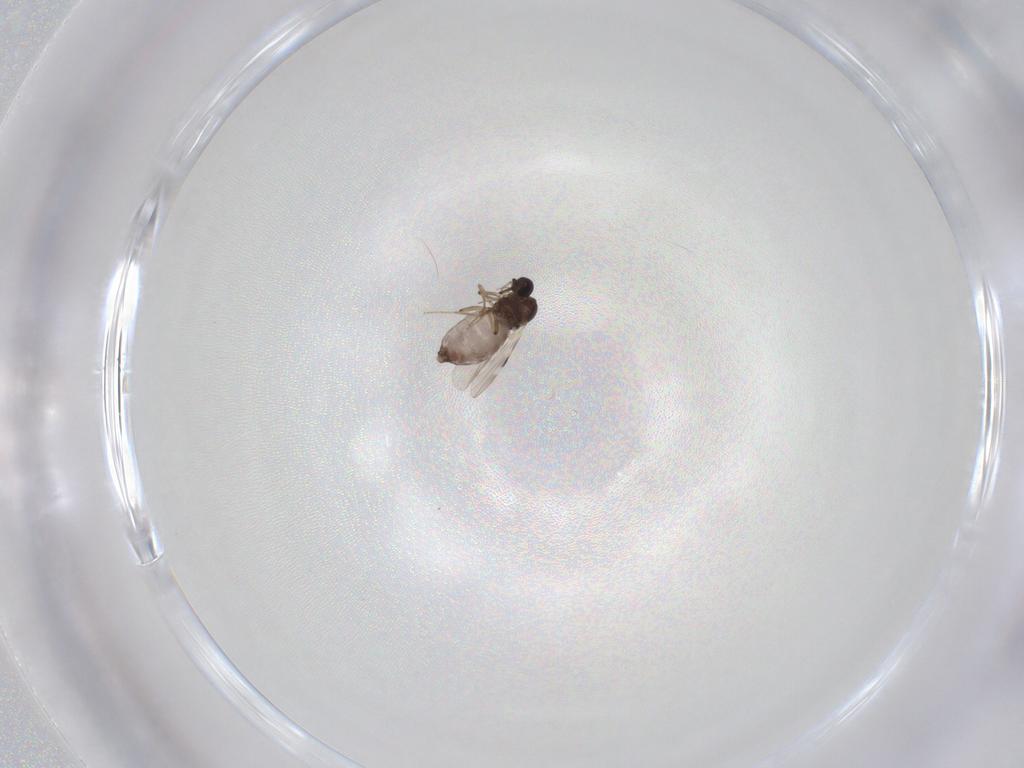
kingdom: Animalia
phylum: Arthropoda
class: Insecta
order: Diptera
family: Ceratopogonidae
